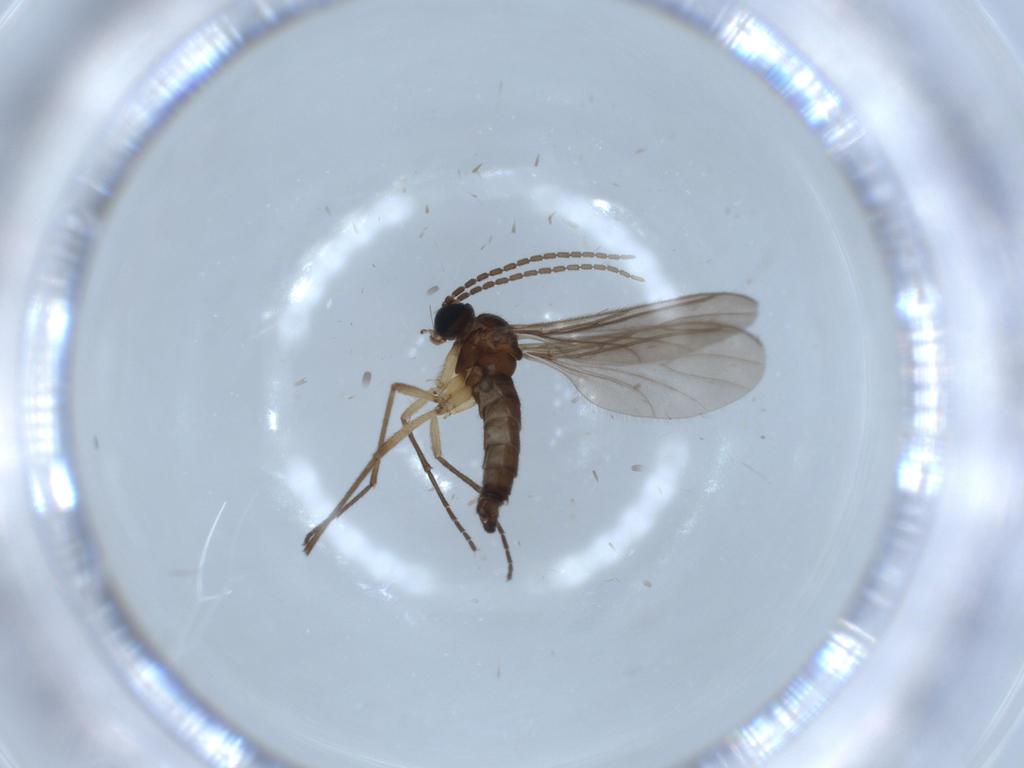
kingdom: Animalia
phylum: Arthropoda
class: Insecta
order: Diptera
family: Sciaridae
